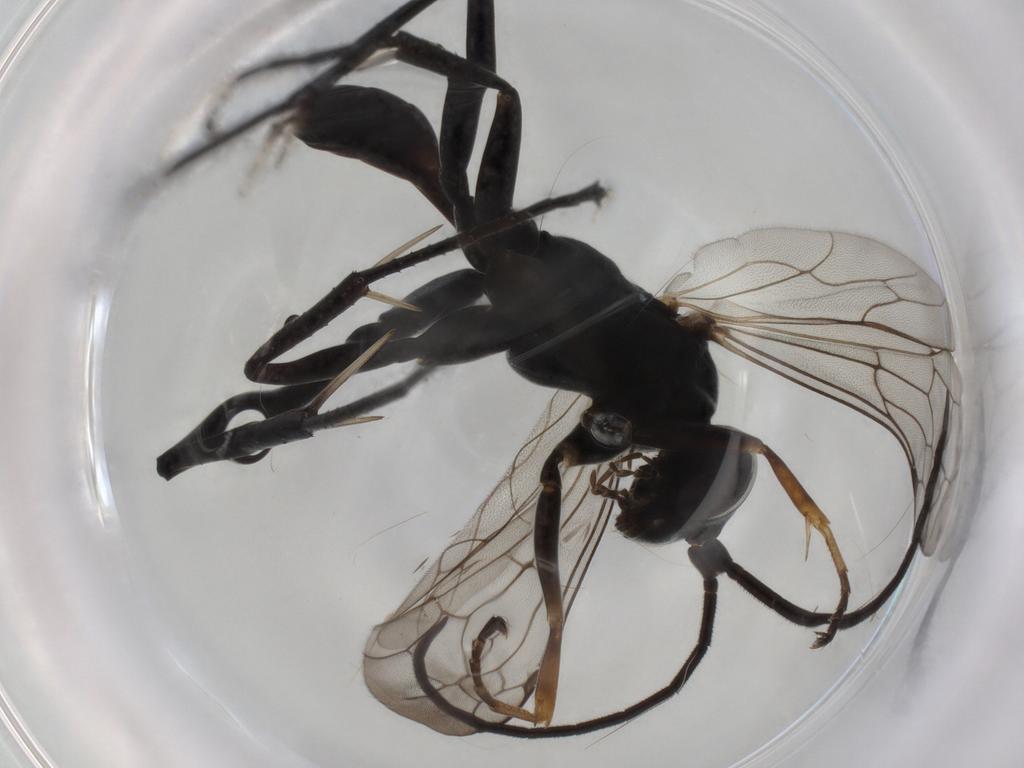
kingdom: Animalia
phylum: Arthropoda
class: Insecta
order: Hymenoptera
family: Pompilidae
